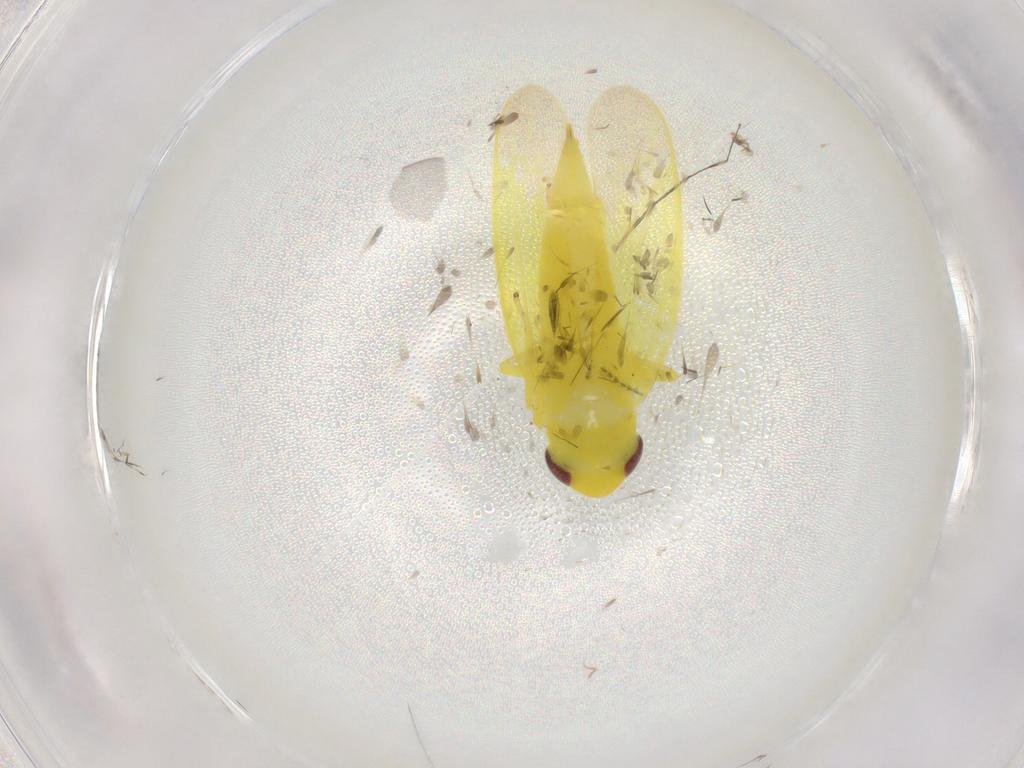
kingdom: Animalia
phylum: Arthropoda
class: Insecta
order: Hemiptera
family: Cicadellidae
